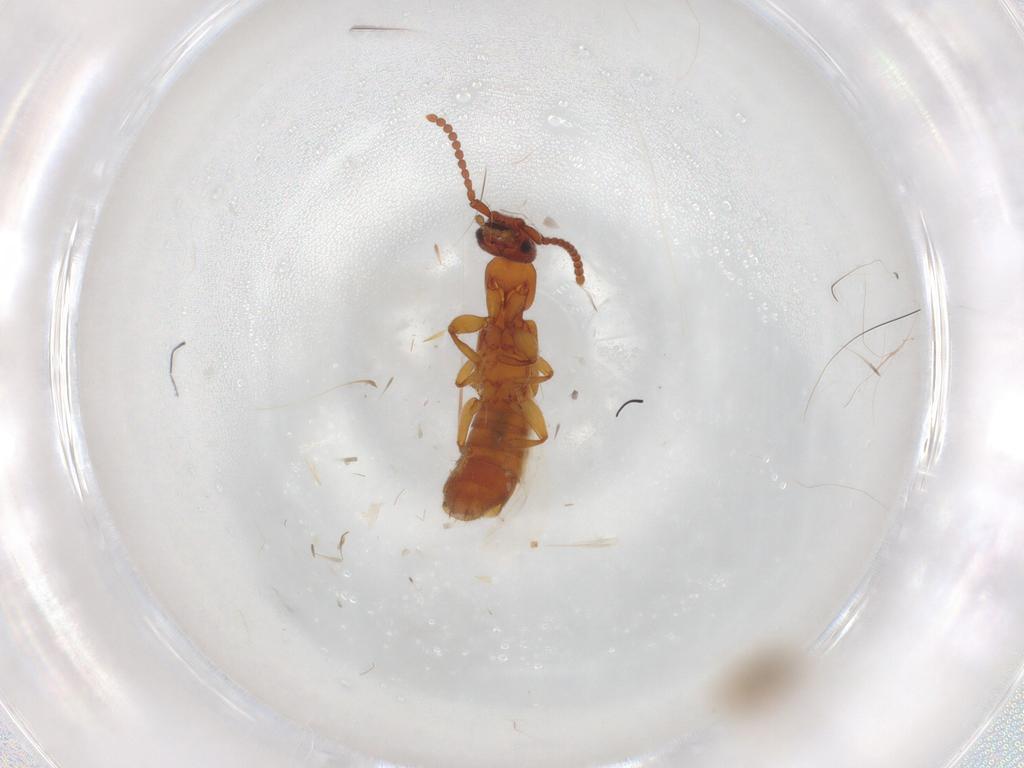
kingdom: Animalia
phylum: Arthropoda
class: Insecta
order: Coleoptera
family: Staphylinidae
